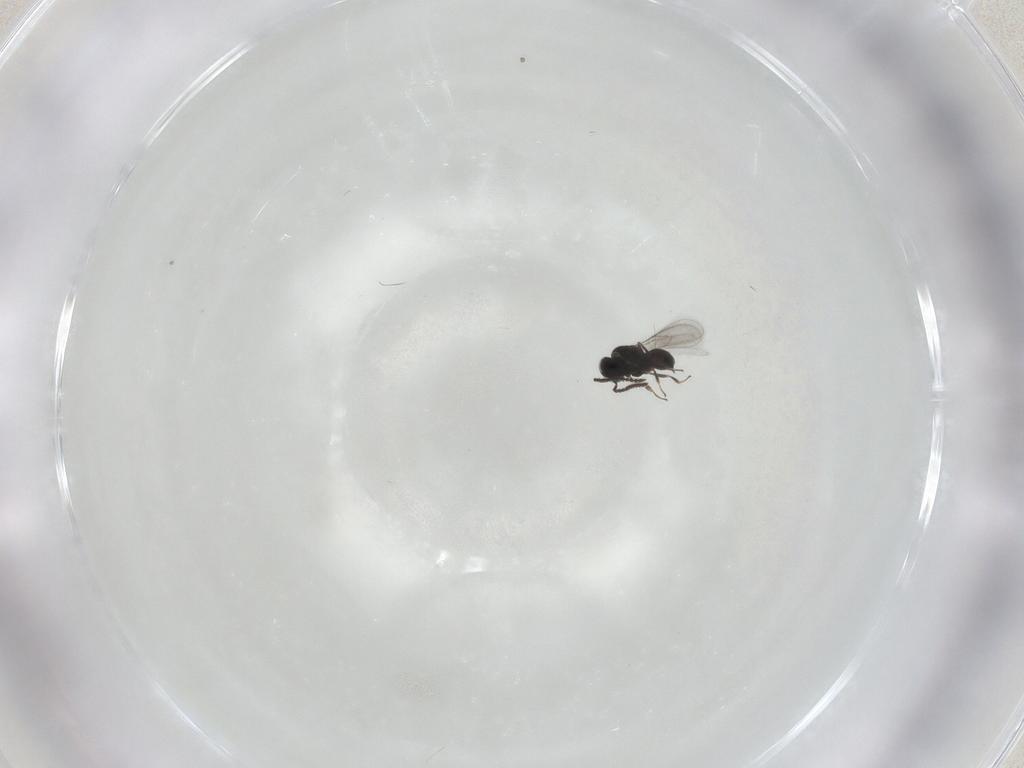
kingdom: Animalia
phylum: Arthropoda
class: Insecta
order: Hymenoptera
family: Scelionidae
